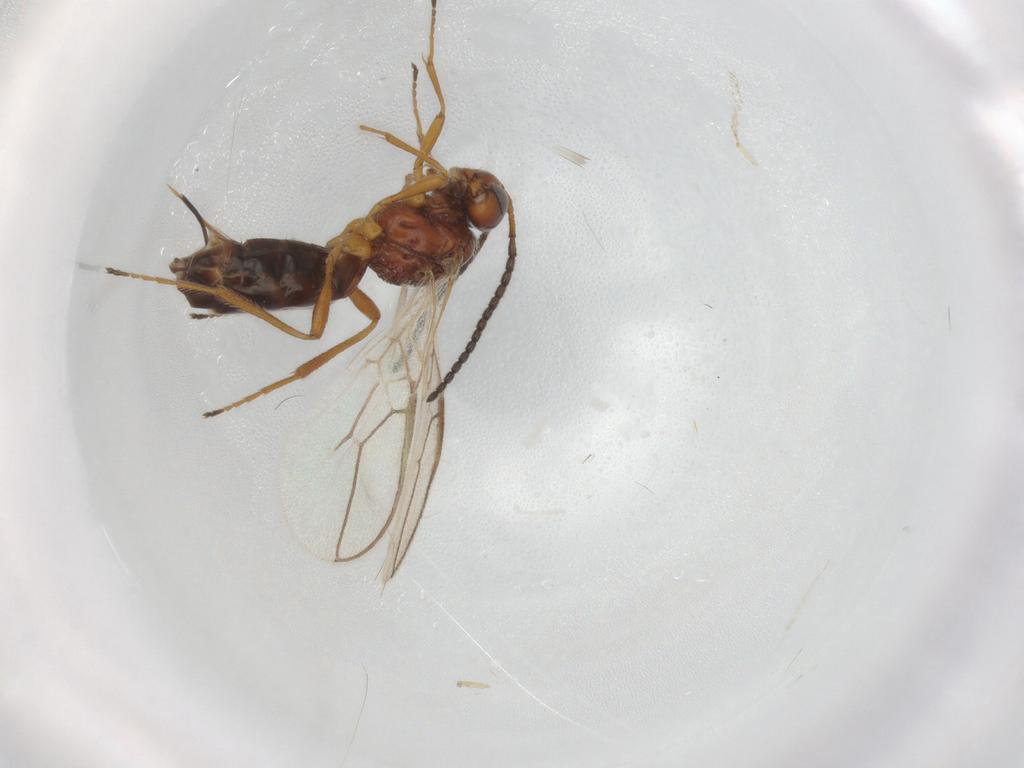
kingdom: Animalia
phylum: Arthropoda
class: Insecta
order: Hymenoptera
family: Braconidae
